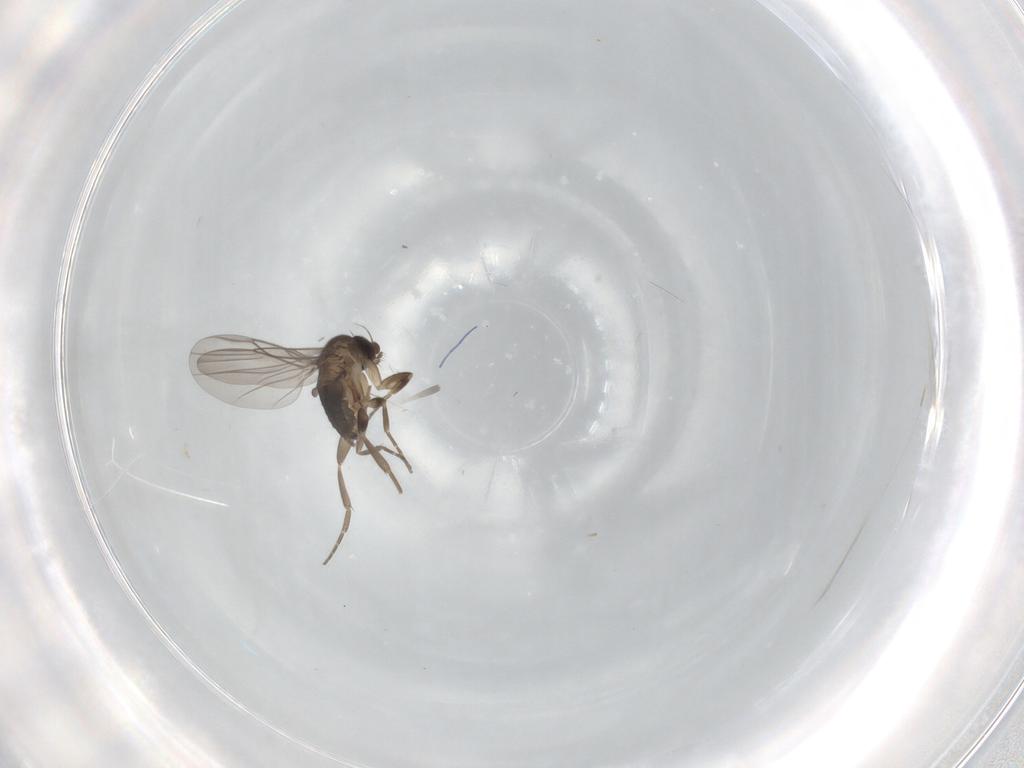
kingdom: Animalia
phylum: Arthropoda
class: Insecta
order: Diptera
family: Phoridae
